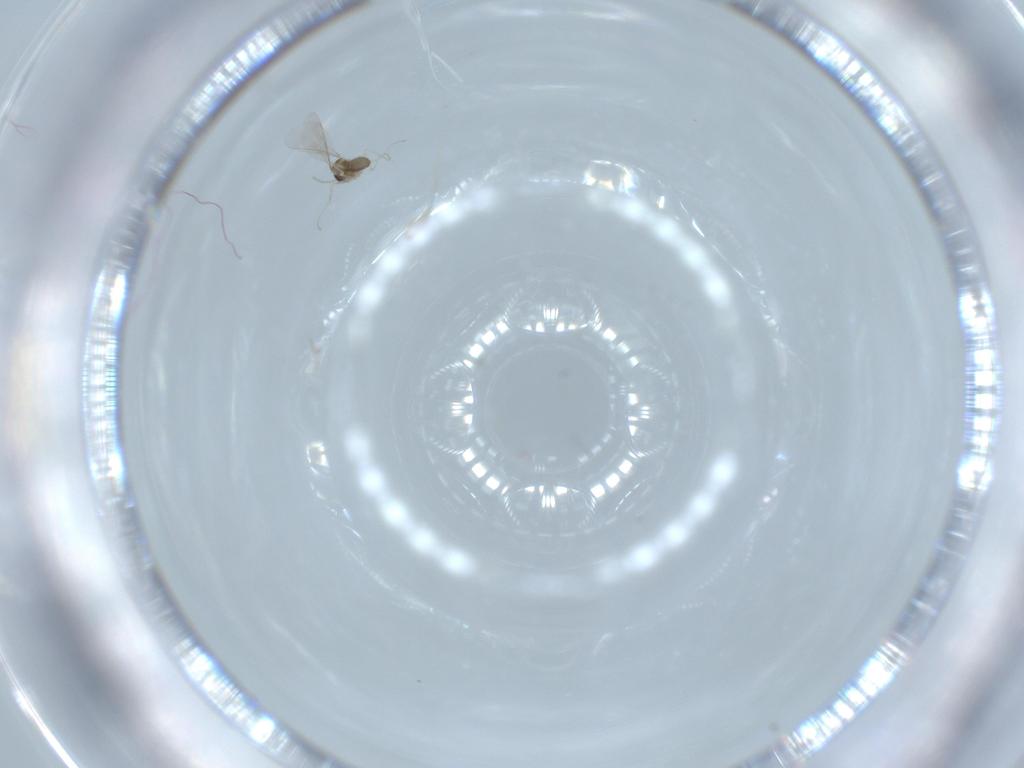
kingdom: Animalia
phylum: Arthropoda
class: Insecta
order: Diptera
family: Cecidomyiidae
